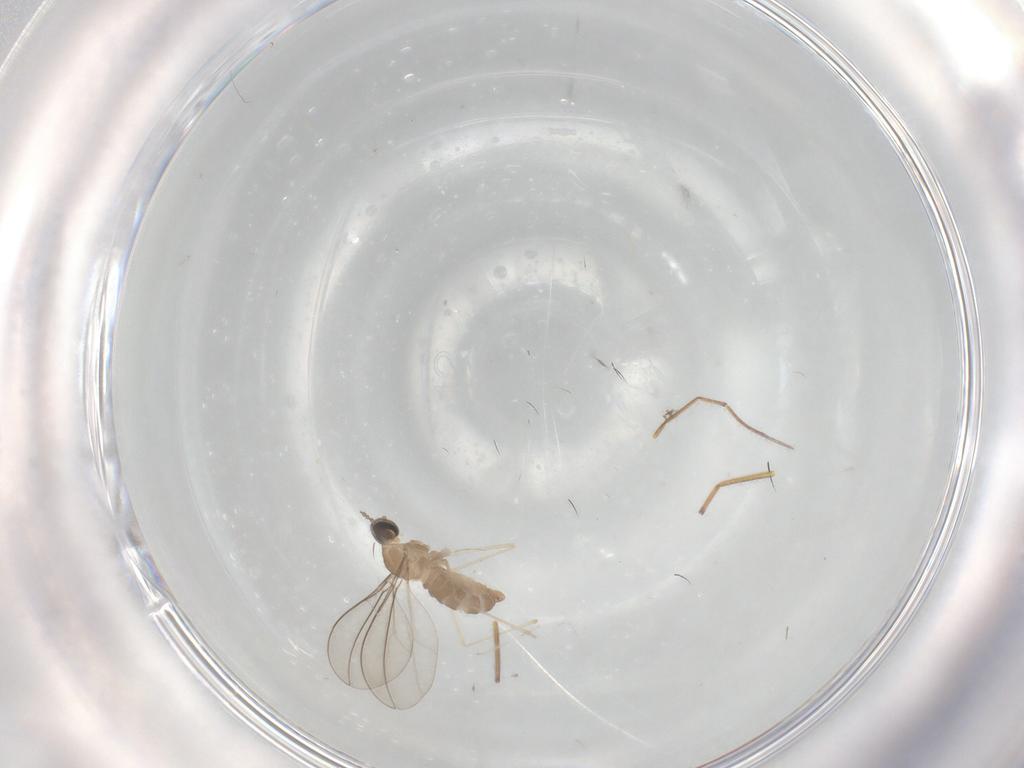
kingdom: Animalia
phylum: Arthropoda
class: Insecta
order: Diptera
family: Cecidomyiidae
